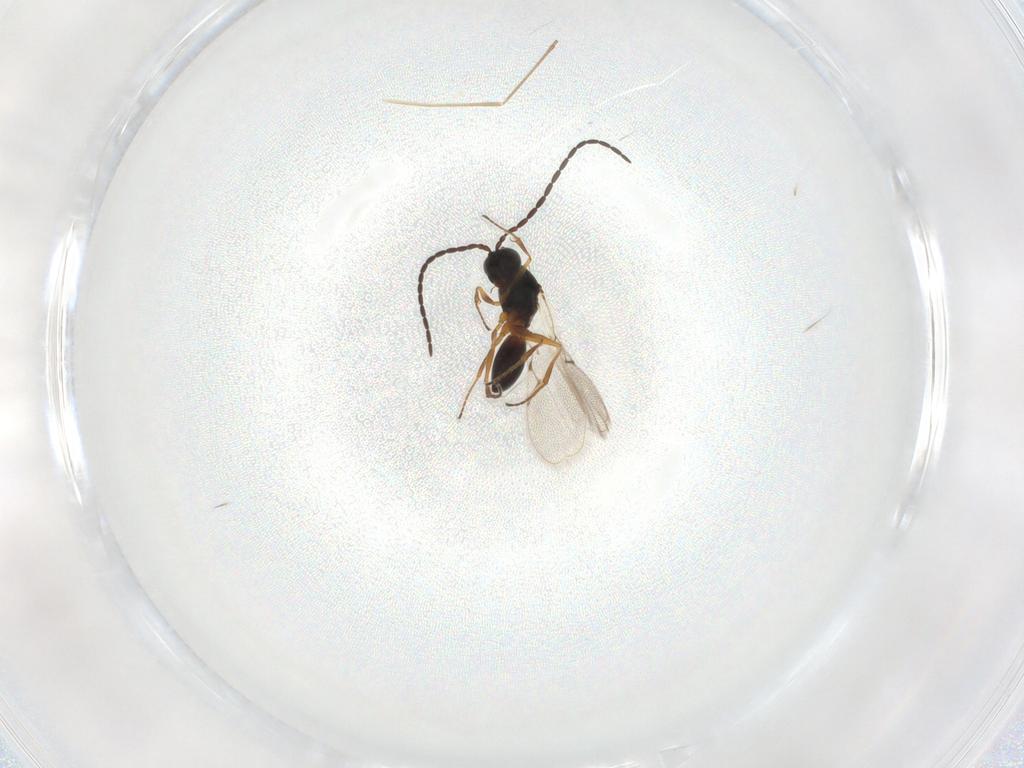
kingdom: Animalia
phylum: Arthropoda
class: Insecta
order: Hymenoptera
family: Figitidae
